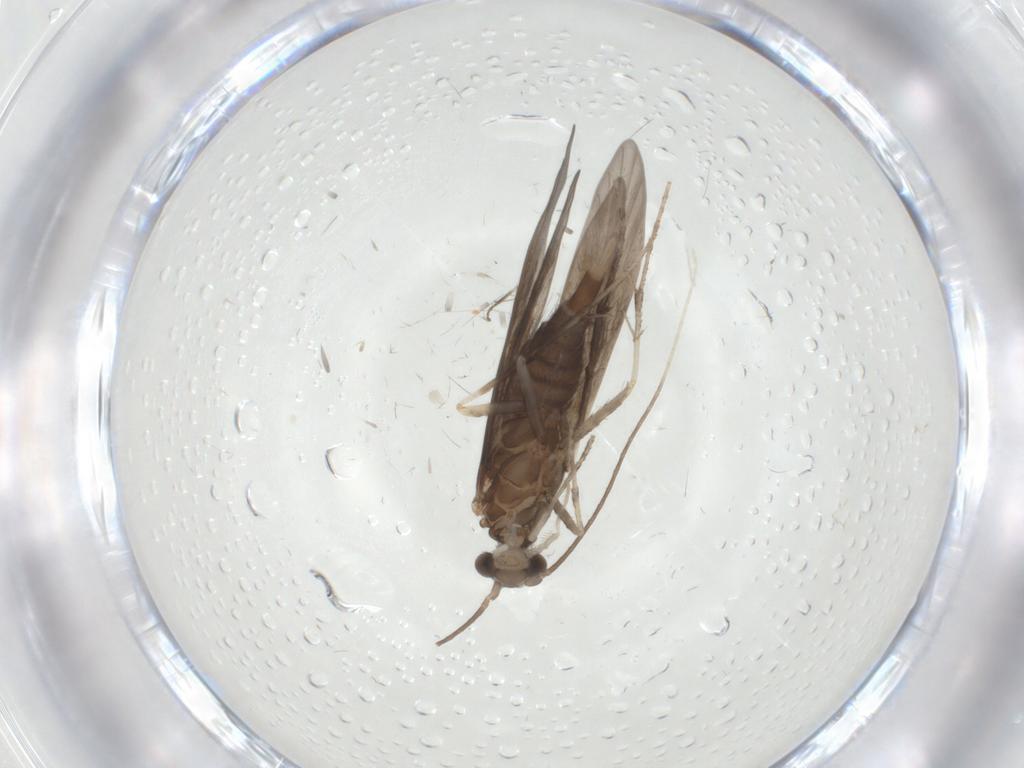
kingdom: Animalia
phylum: Arthropoda
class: Insecta
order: Trichoptera
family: Xiphocentronidae
